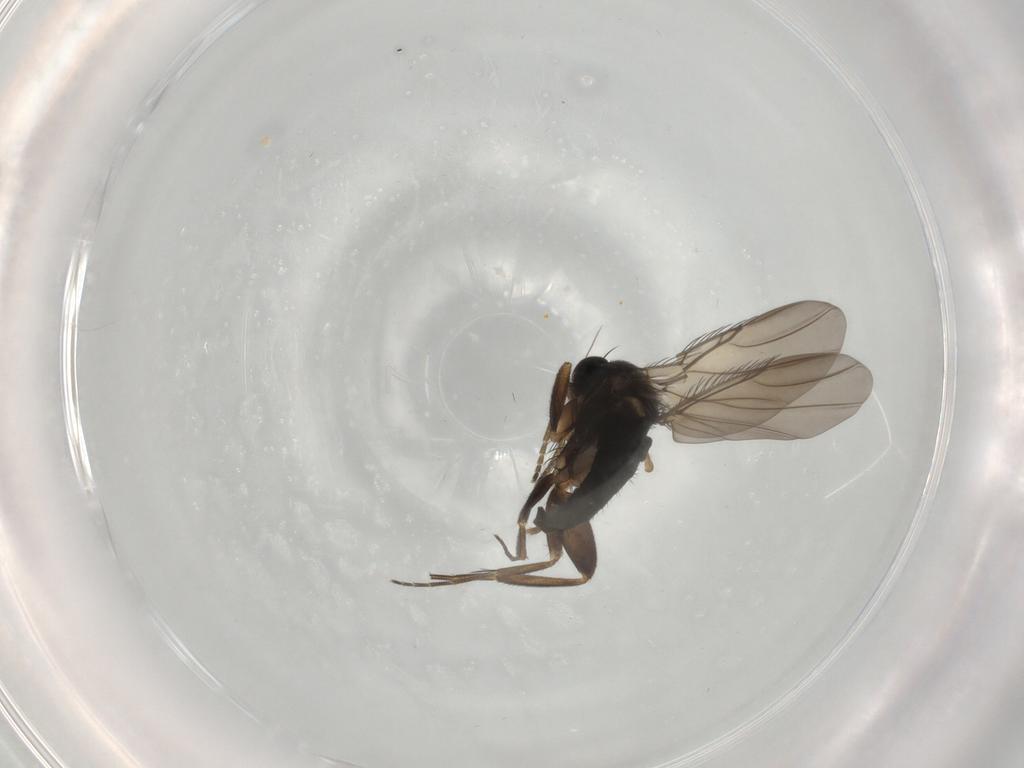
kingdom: Animalia
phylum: Arthropoda
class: Insecta
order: Diptera
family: Phoridae
